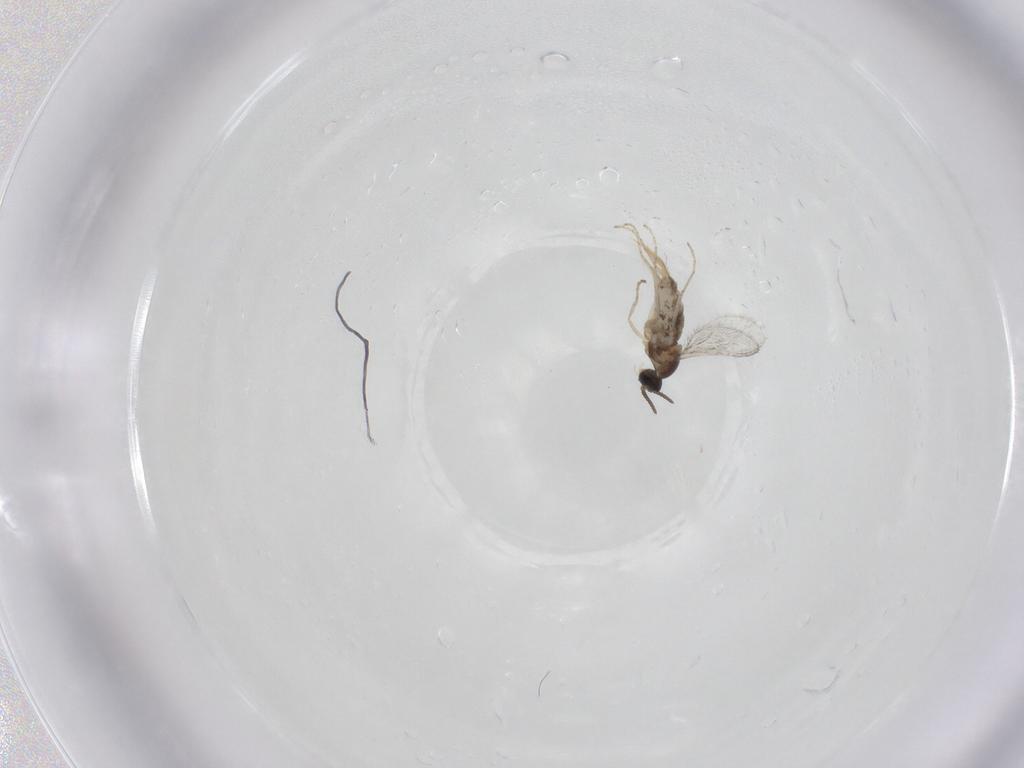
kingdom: Animalia
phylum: Arthropoda
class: Insecta
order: Diptera
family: Cecidomyiidae
